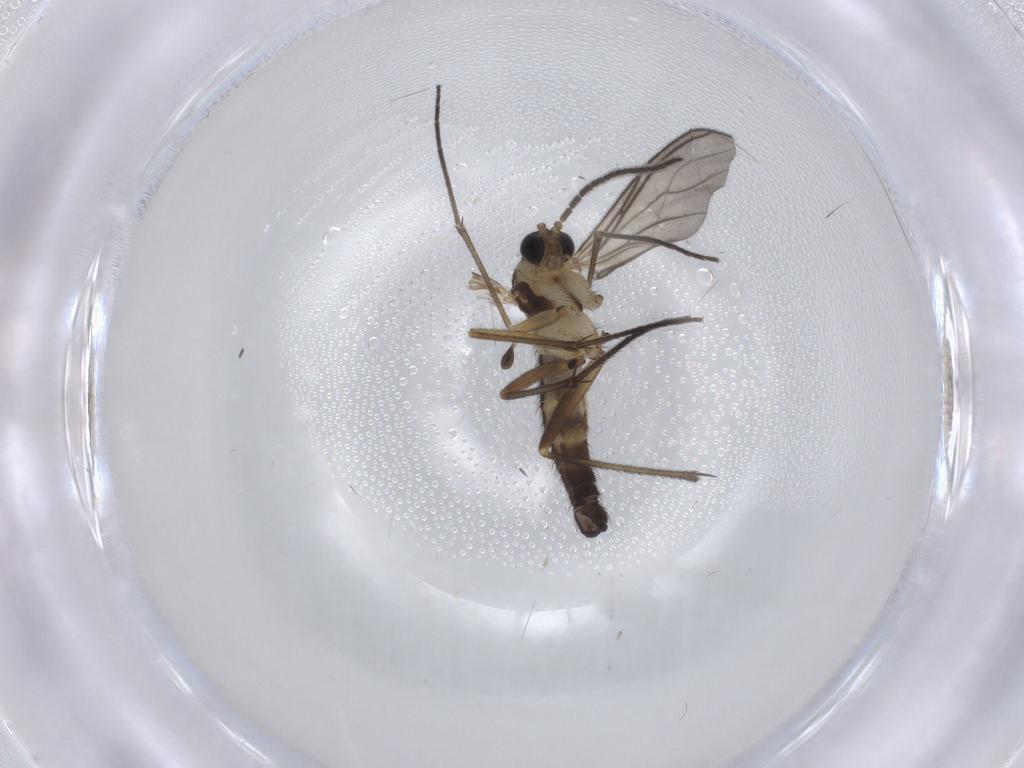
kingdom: Animalia
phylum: Arthropoda
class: Insecta
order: Diptera
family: Sciaridae
